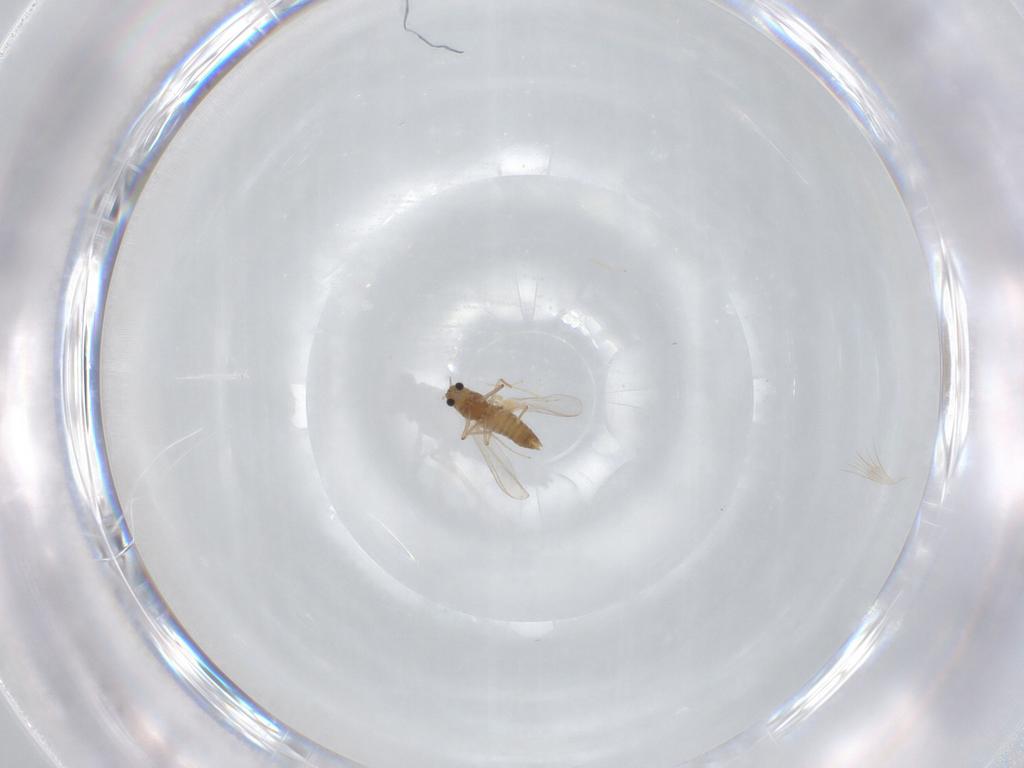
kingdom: Animalia
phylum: Arthropoda
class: Insecta
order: Diptera
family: Chironomidae
